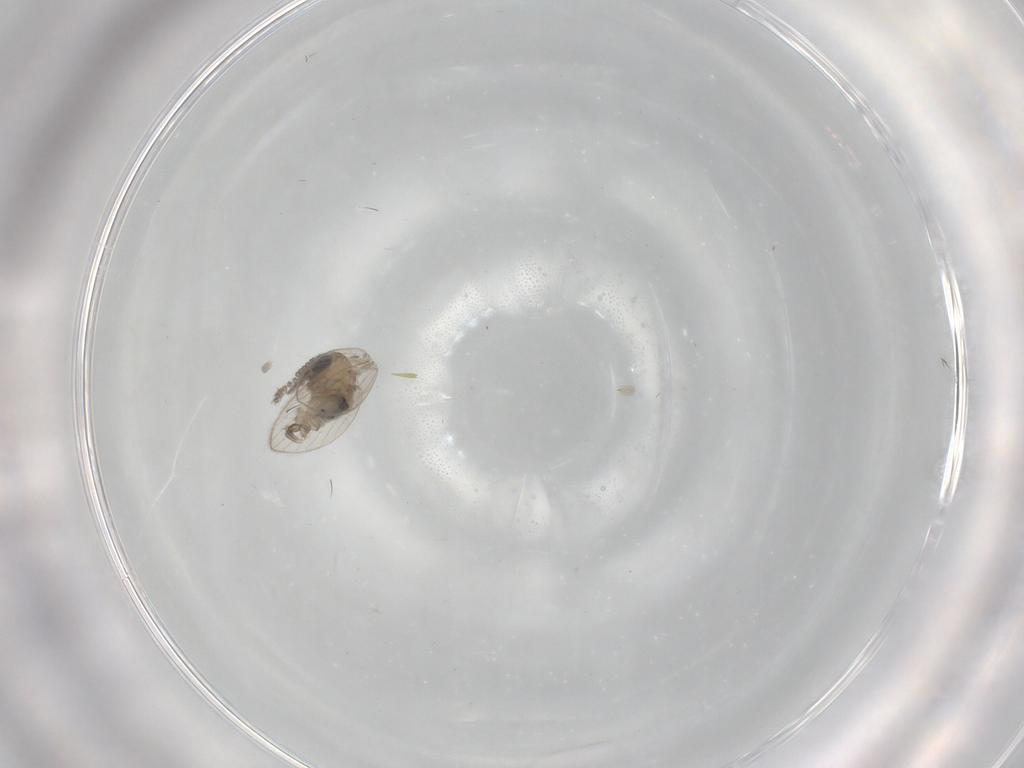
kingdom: Animalia
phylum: Arthropoda
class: Insecta
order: Diptera
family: Psychodidae
